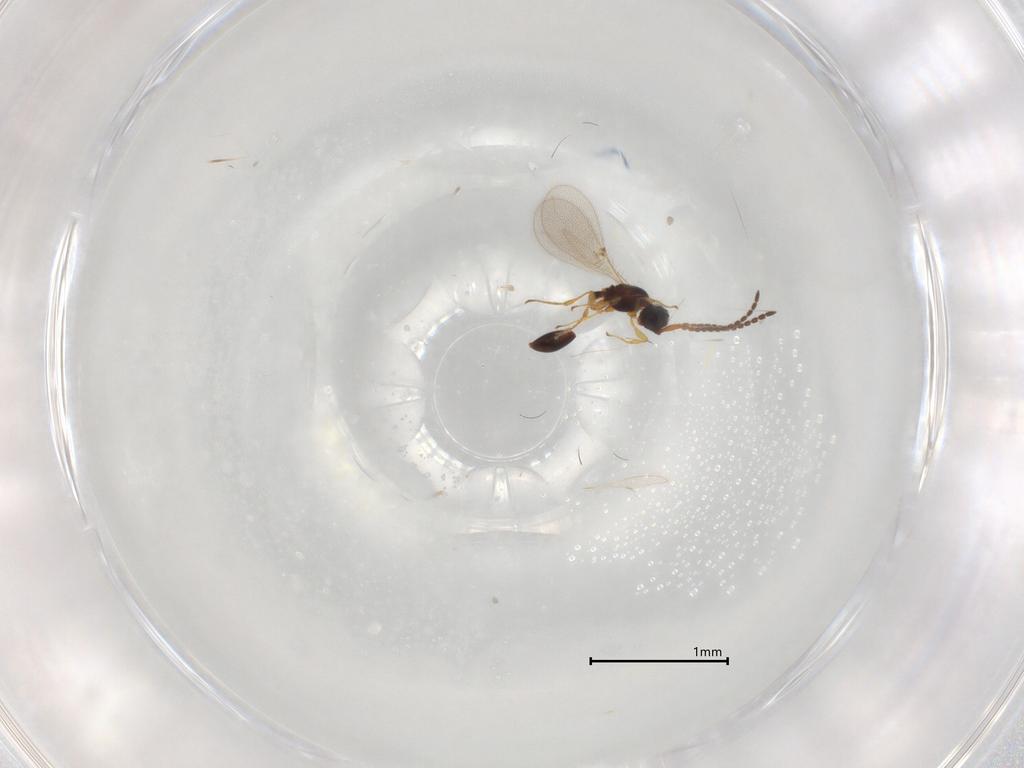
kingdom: Animalia
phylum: Arthropoda
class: Insecta
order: Hymenoptera
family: Diapriidae
